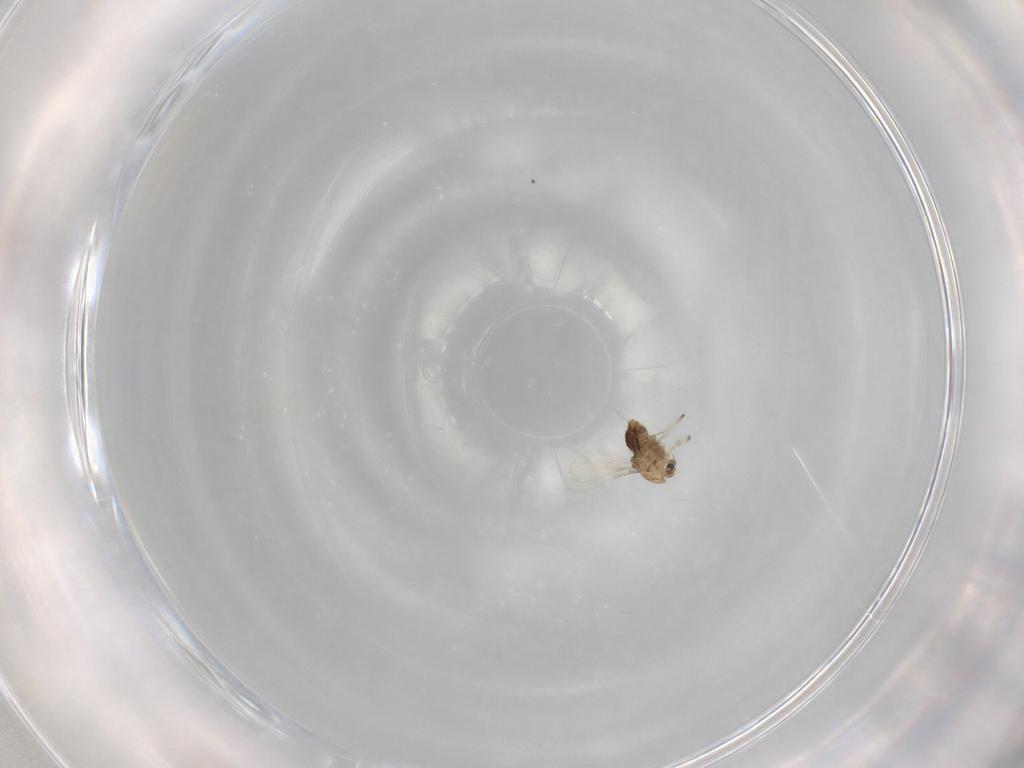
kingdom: Animalia
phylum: Arthropoda
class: Insecta
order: Diptera
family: Chironomidae
